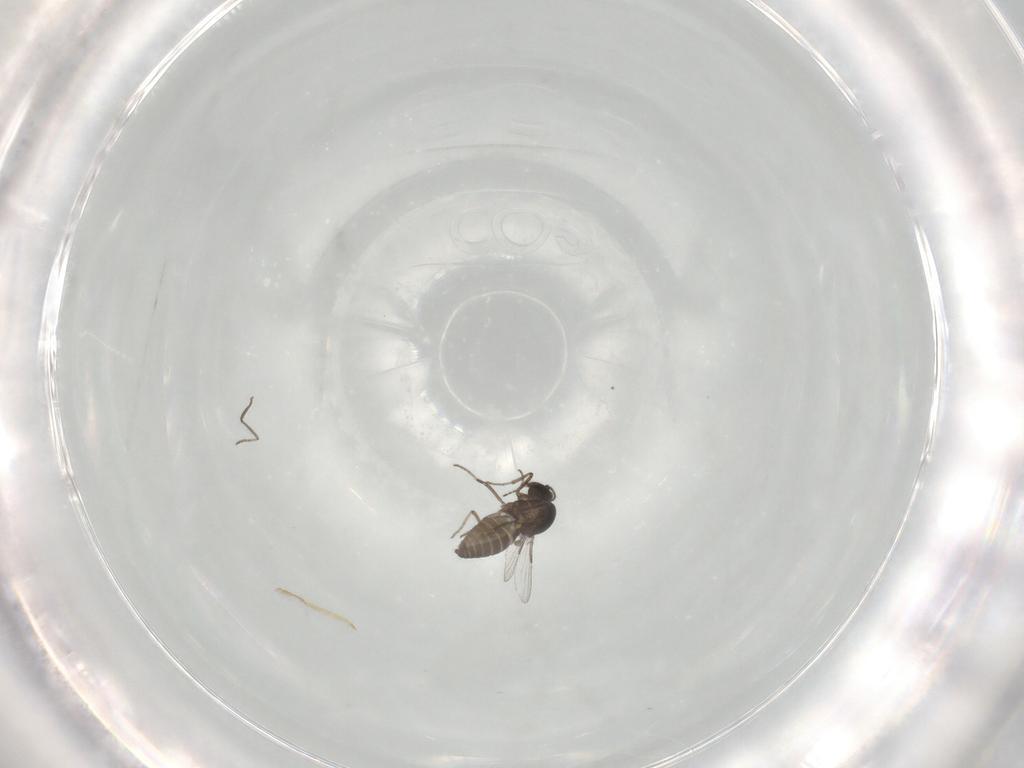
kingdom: Animalia
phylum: Arthropoda
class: Insecta
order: Diptera
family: Ceratopogonidae
